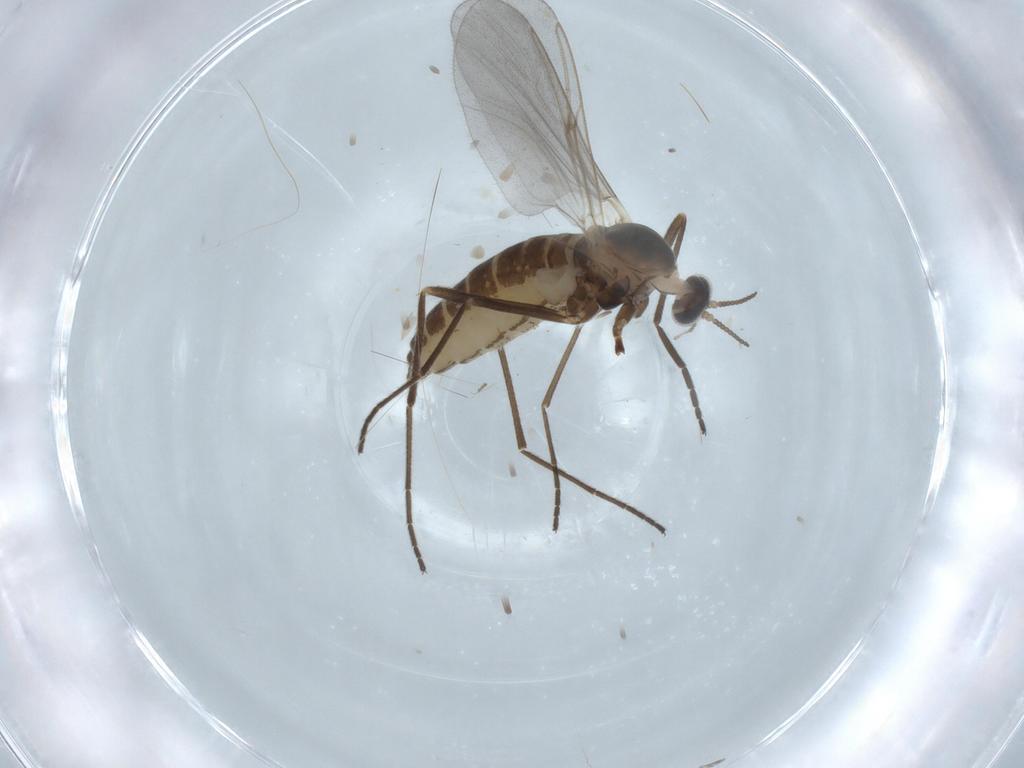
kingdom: Animalia
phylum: Arthropoda
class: Insecta
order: Diptera
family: Cecidomyiidae
